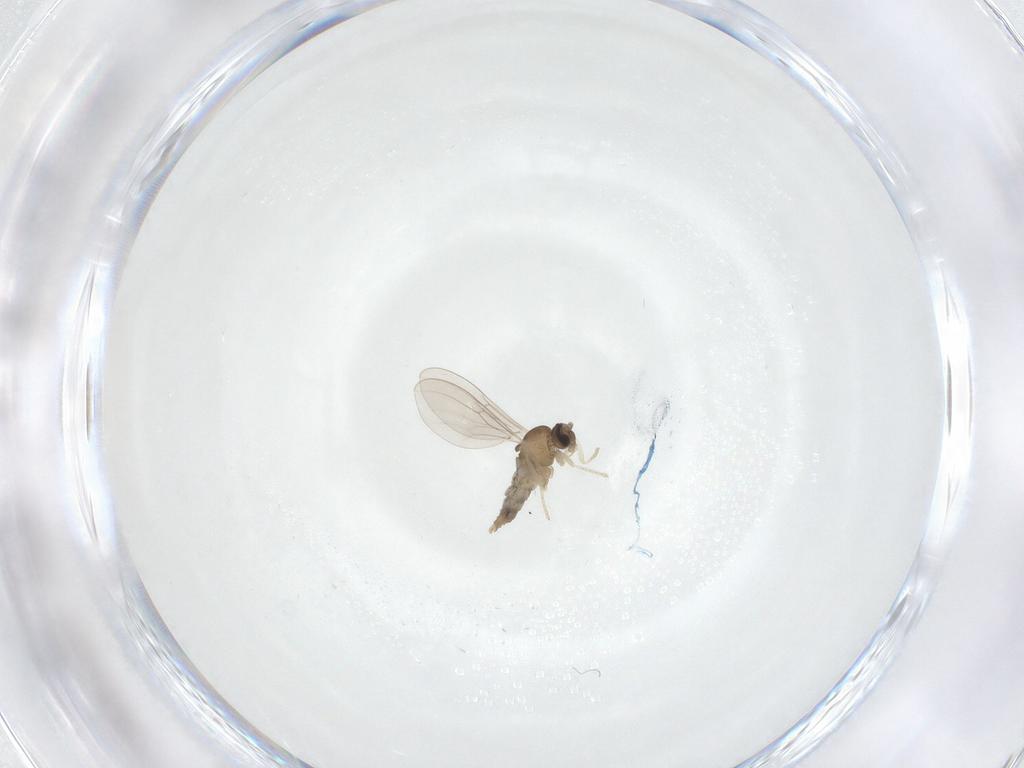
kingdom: Animalia
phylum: Arthropoda
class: Insecta
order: Diptera
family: Cecidomyiidae
